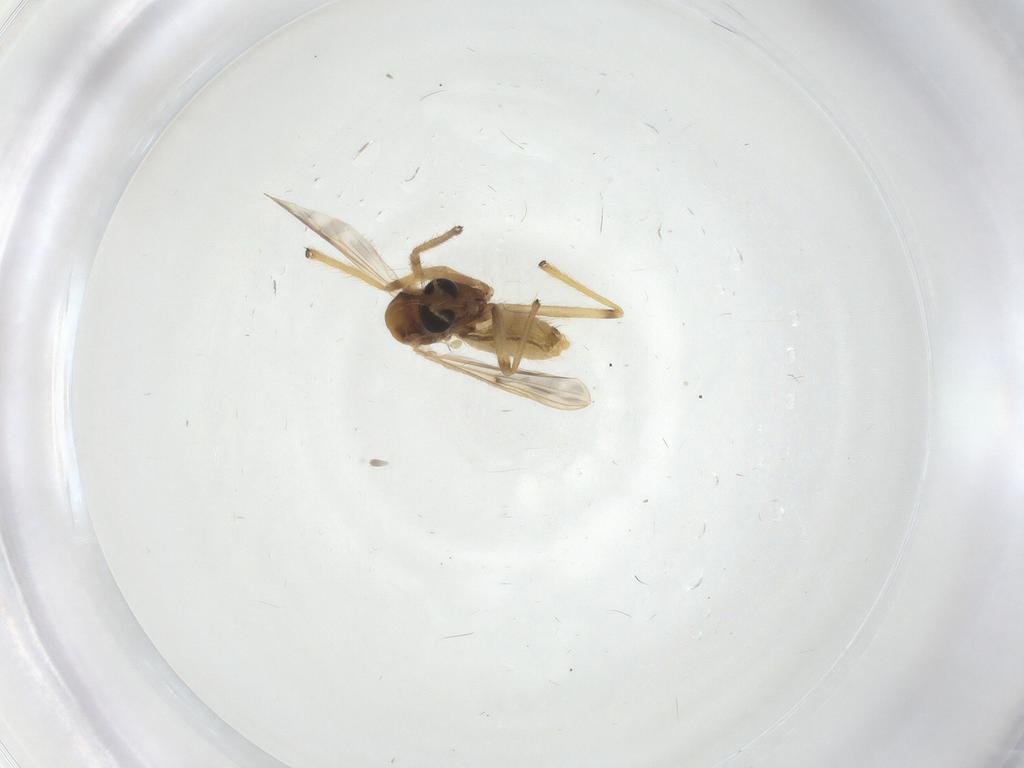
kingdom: Animalia
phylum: Arthropoda
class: Insecta
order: Diptera
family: Chironomidae
